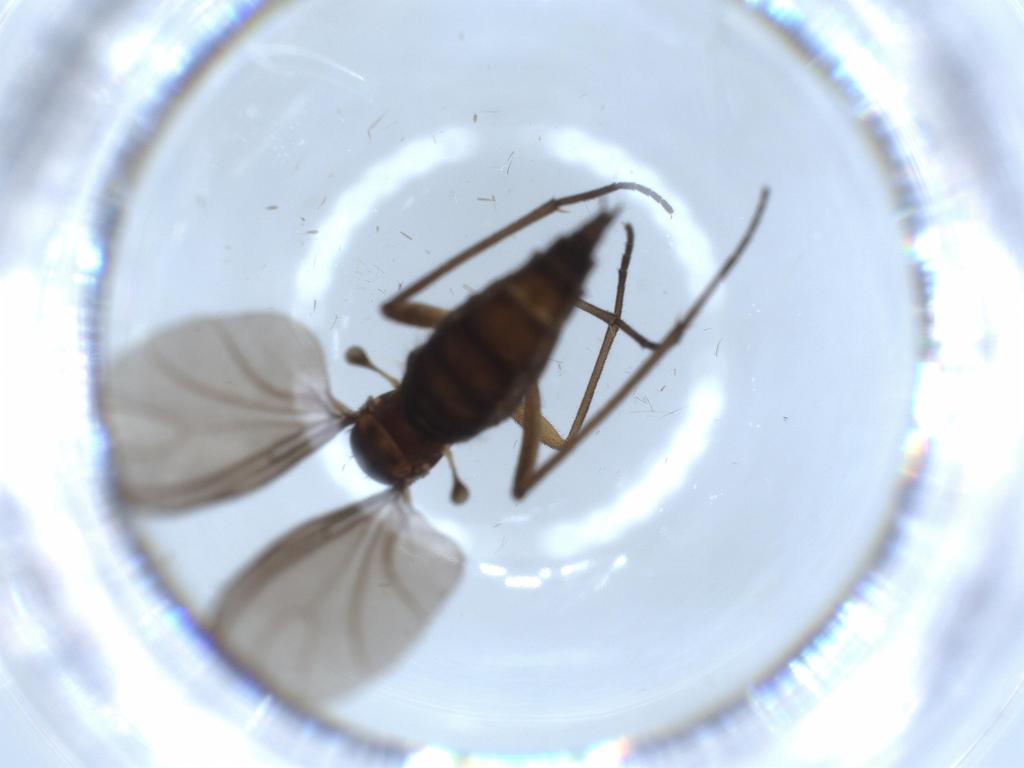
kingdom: Animalia
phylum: Arthropoda
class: Insecta
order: Diptera
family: Sciaridae
